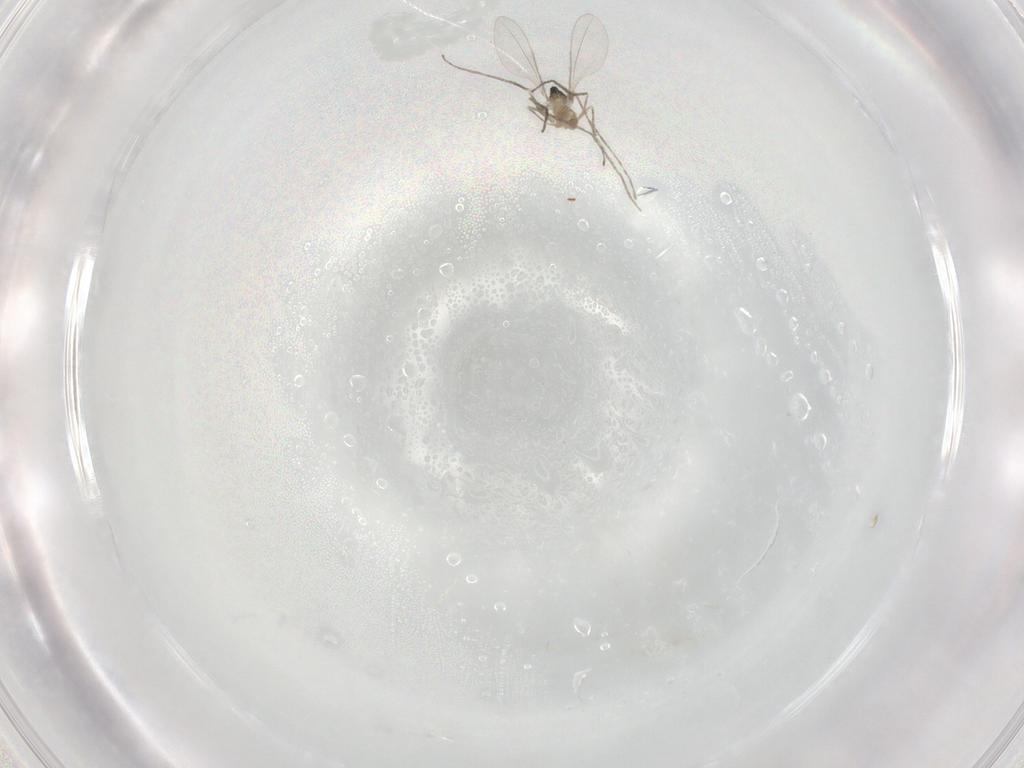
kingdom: Animalia
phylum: Arthropoda
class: Insecta
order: Diptera
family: Cecidomyiidae
